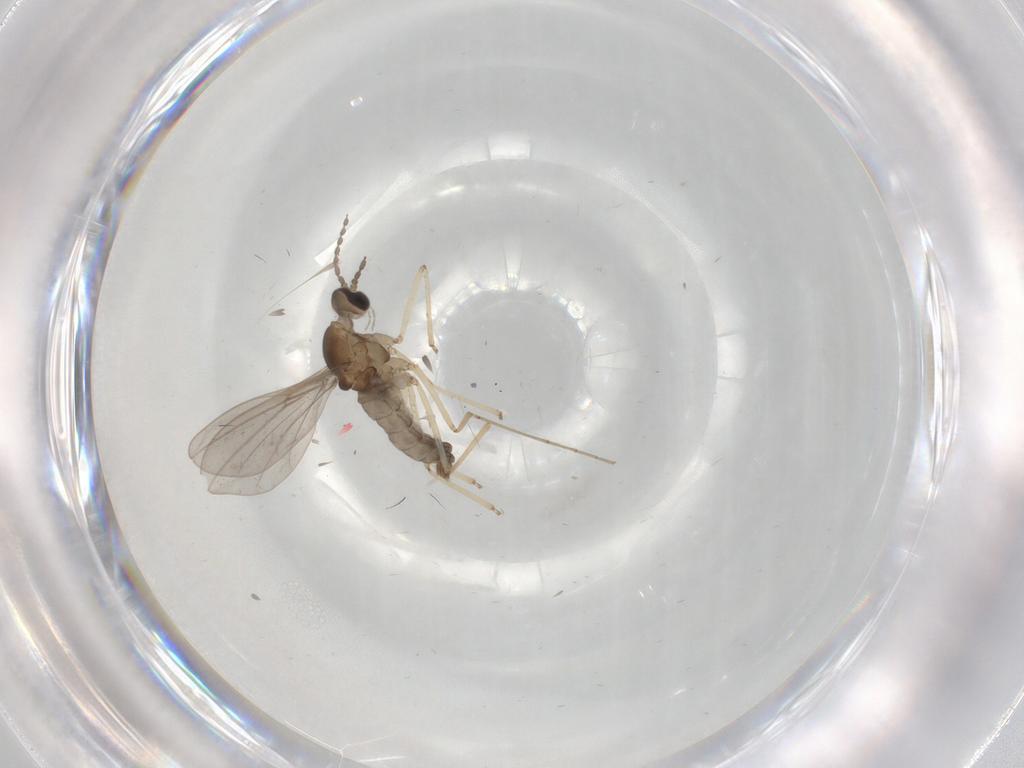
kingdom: Animalia
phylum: Arthropoda
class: Insecta
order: Diptera
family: Cecidomyiidae
